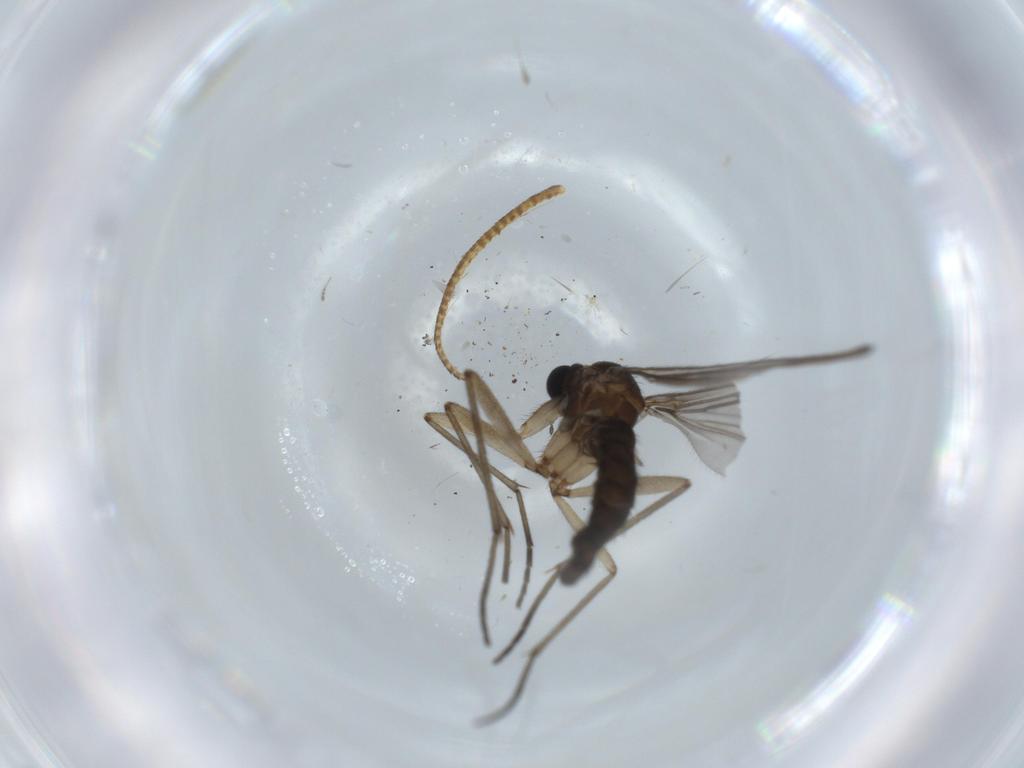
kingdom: Animalia
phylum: Arthropoda
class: Insecta
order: Diptera
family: Sciaridae
